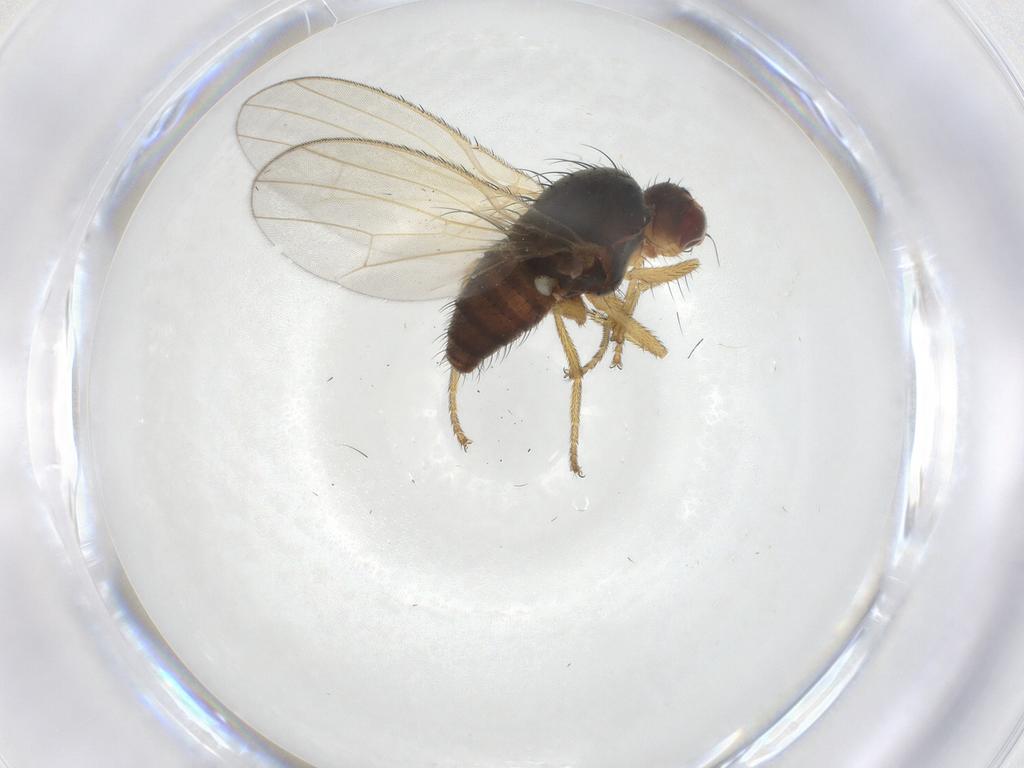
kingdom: Animalia
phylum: Arthropoda
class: Insecta
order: Diptera
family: Heleomyzidae
